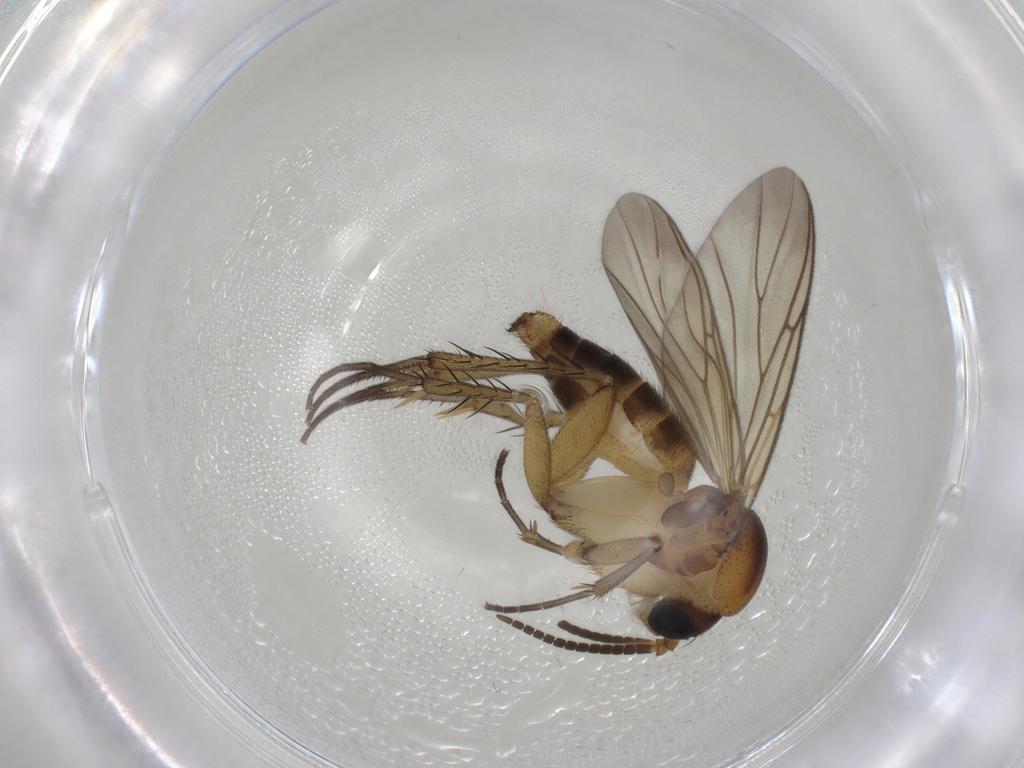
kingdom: Animalia
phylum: Arthropoda
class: Insecta
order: Diptera
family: Mycetophilidae
